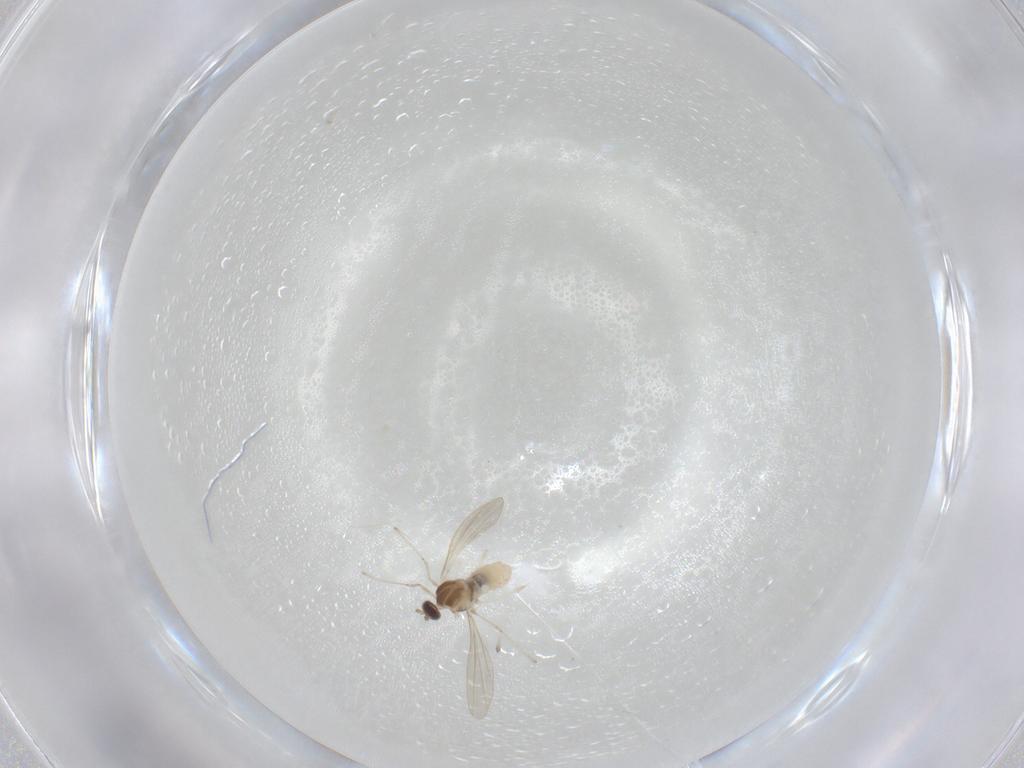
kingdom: Animalia
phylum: Arthropoda
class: Insecta
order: Diptera
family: Cecidomyiidae
